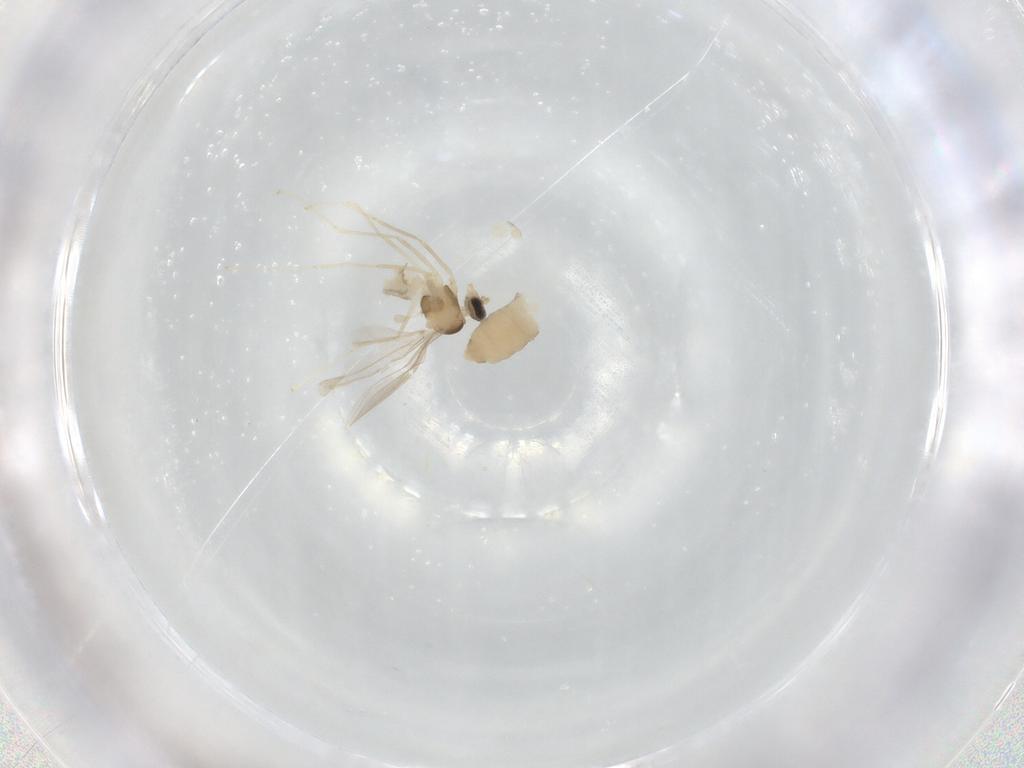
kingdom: Animalia
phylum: Arthropoda
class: Insecta
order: Diptera
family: Cecidomyiidae
